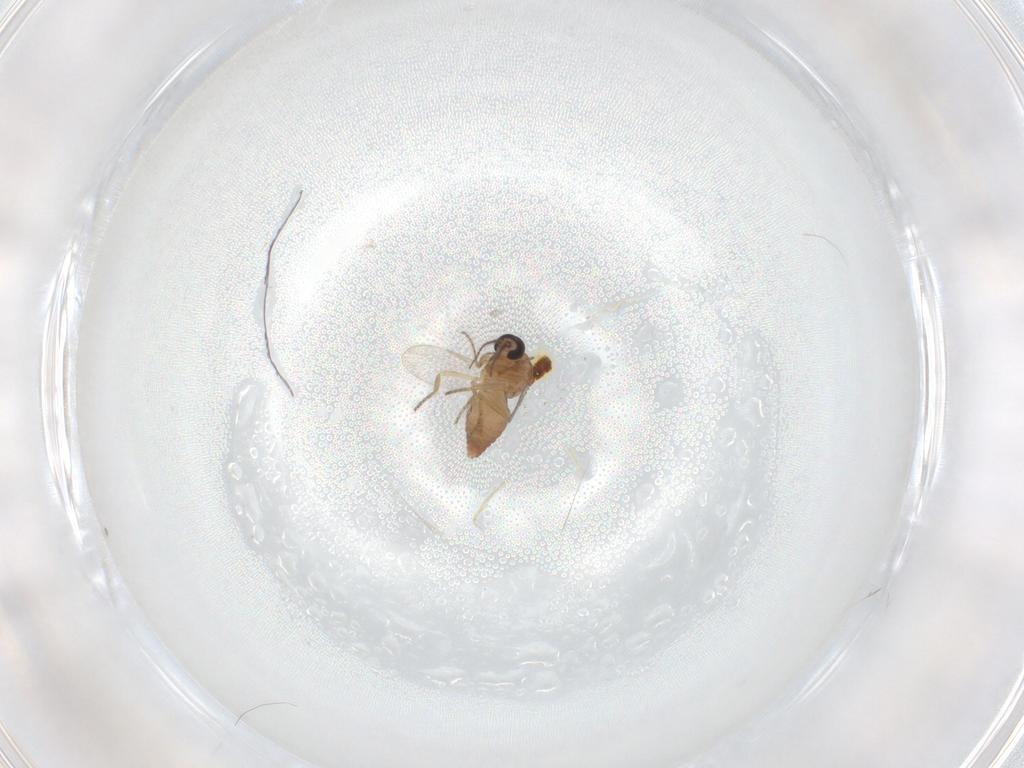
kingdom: Animalia
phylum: Arthropoda
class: Insecta
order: Diptera
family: Ceratopogonidae
